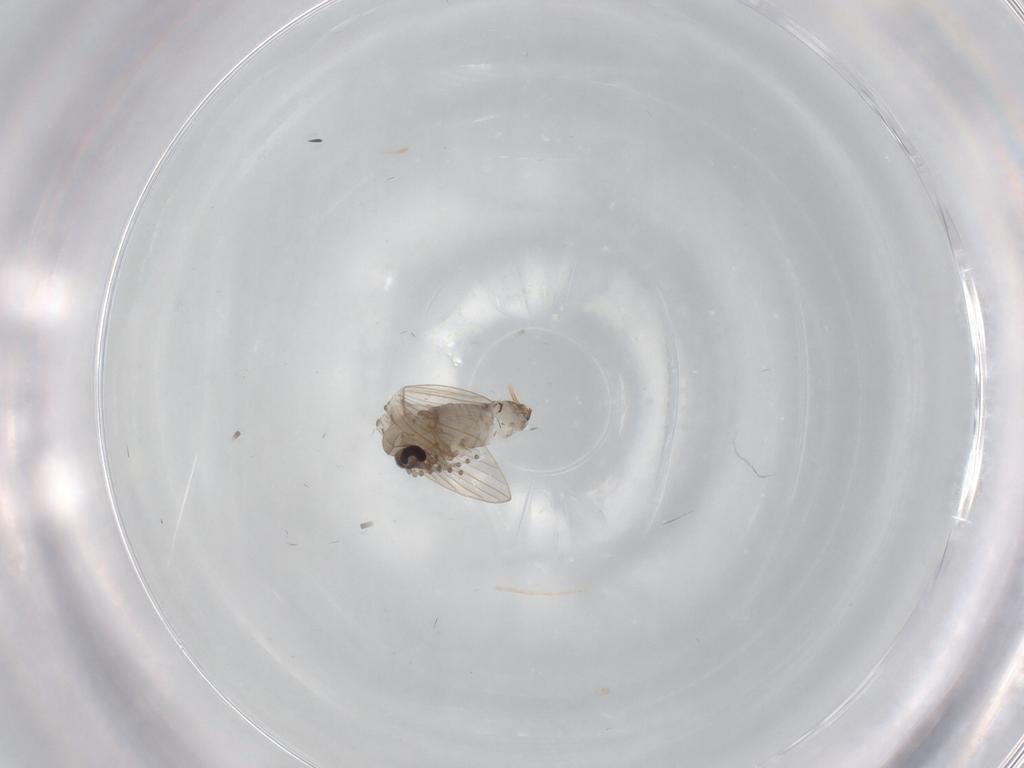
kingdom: Animalia
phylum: Arthropoda
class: Insecta
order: Diptera
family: Psychodidae
